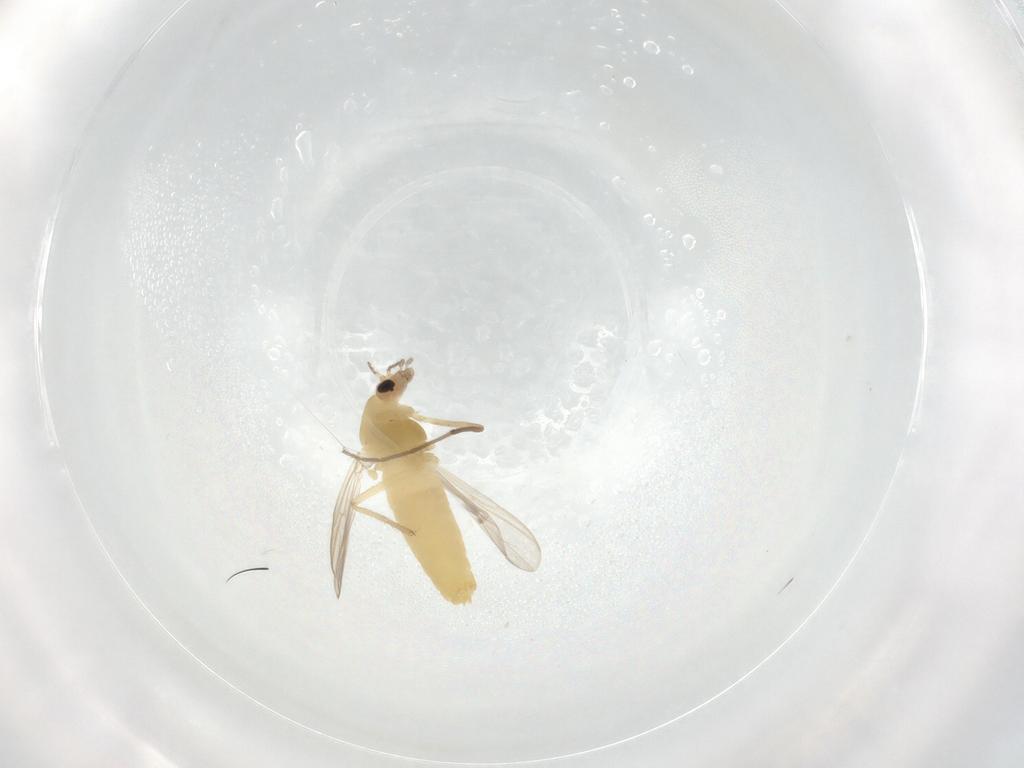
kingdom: Animalia
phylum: Arthropoda
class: Insecta
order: Diptera
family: Chironomidae
